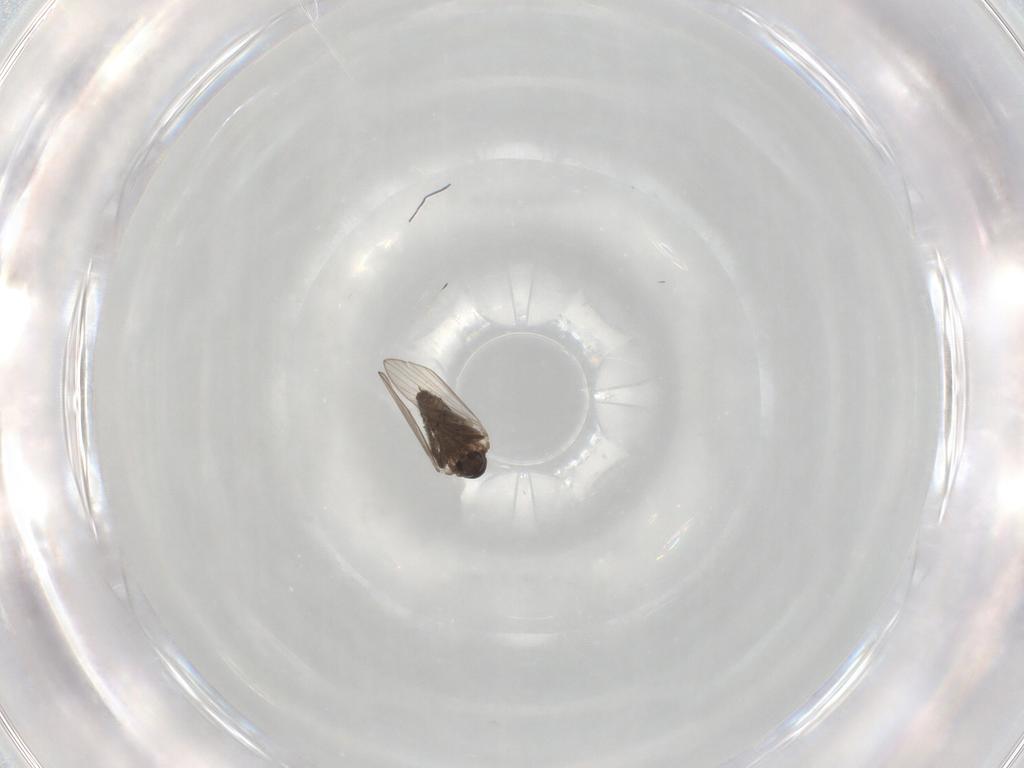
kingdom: Animalia
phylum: Arthropoda
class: Insecta
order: Diptera
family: Psychodidae
